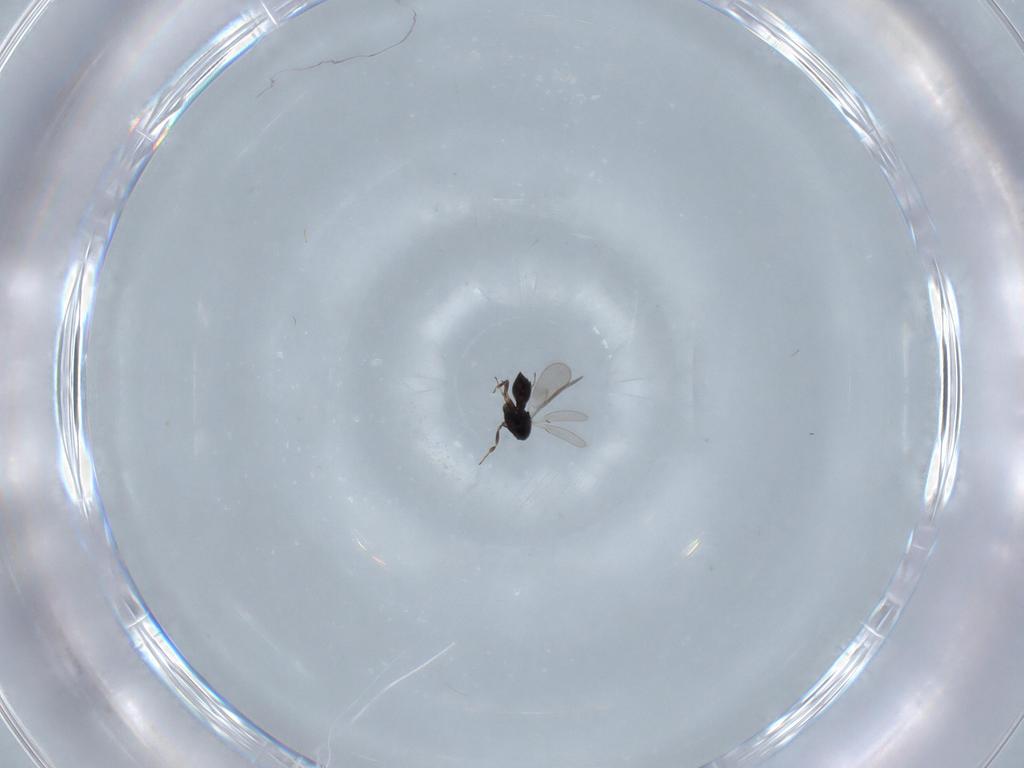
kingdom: Animalia
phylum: Arthropoda
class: Insecta
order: Hymenoptera
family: Scelionidae
